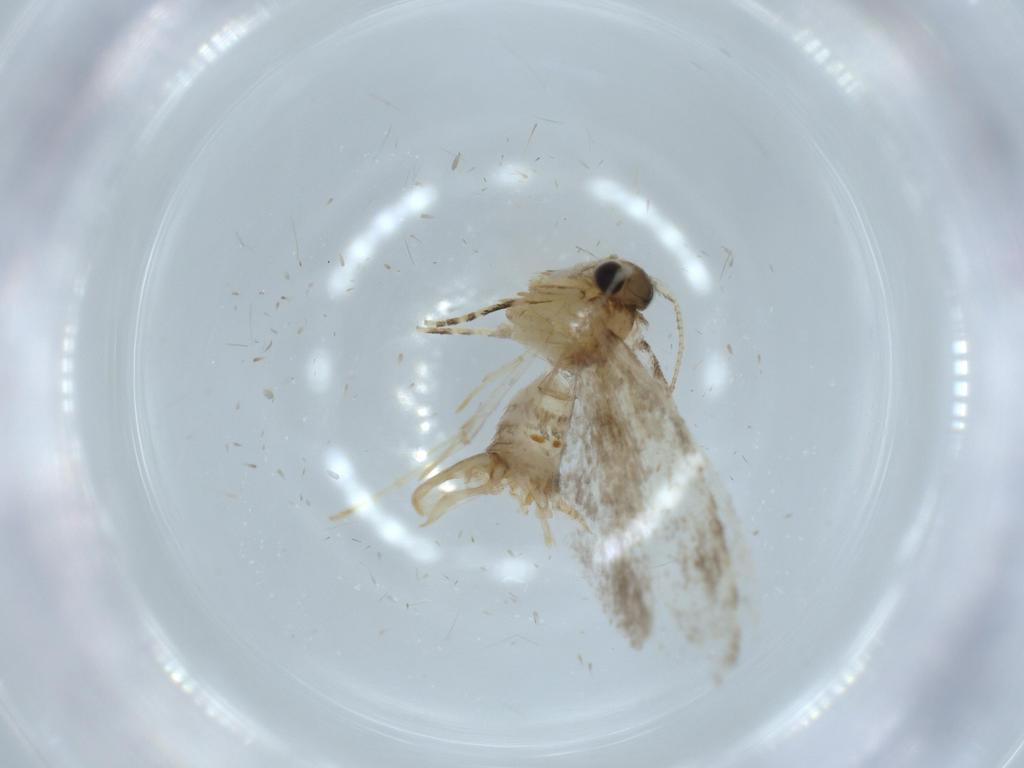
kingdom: Animalia
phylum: Arthropoda
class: Insecta
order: Lepidoptera
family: Tineidae
